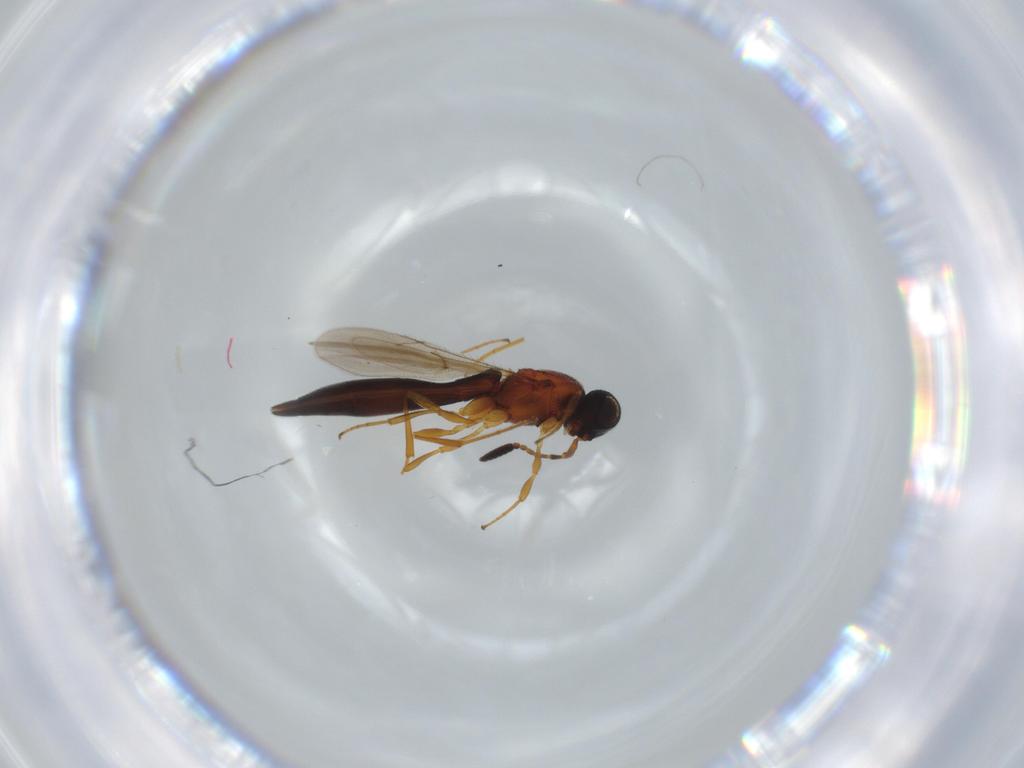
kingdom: Animalia
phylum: Arthropoda
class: Insecta
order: Hymenoptera
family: Scelionidae
